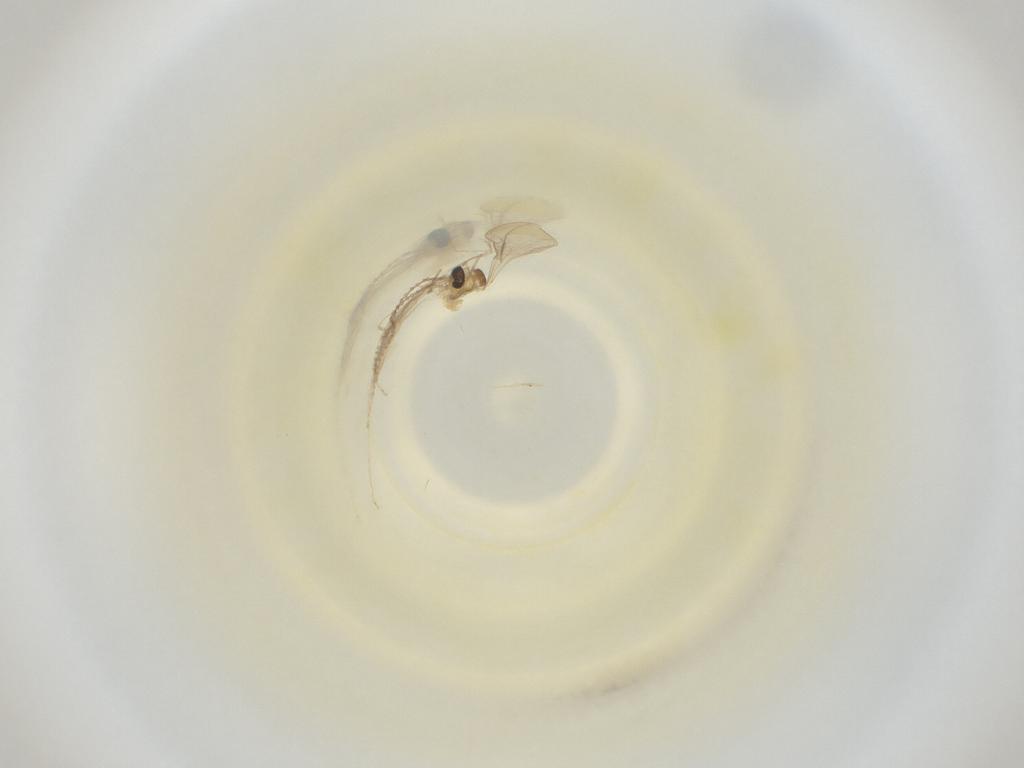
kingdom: Animalia
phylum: Arthropoda
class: Insecta
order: Diptera
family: Cecidomyiidae
